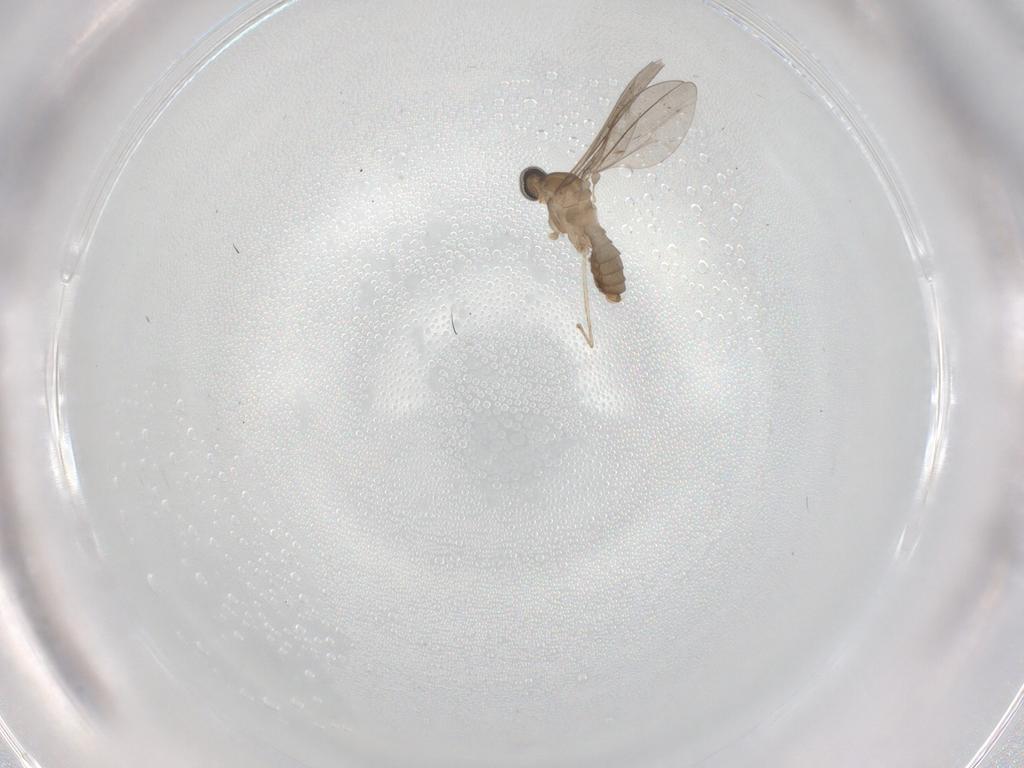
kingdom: Animalia
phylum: Arthropoda
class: Insecta
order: Diptera
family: Cecidomyiidae
